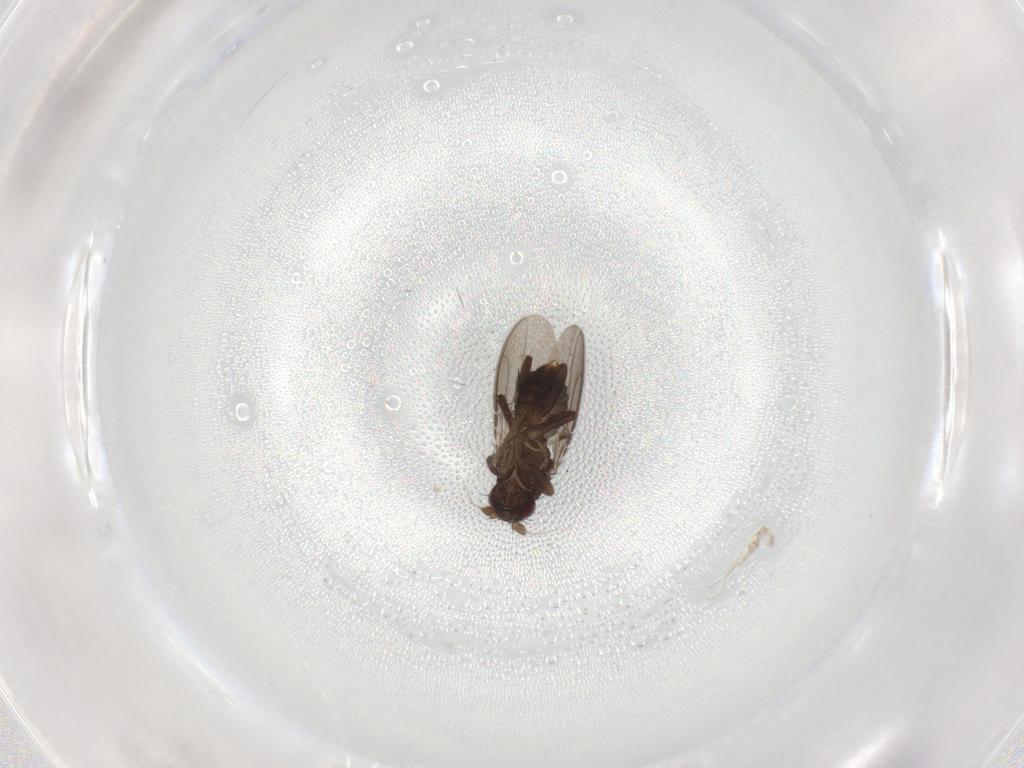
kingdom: Animalia
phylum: Arthropoda
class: Insecta
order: Diptera
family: Sphaeroceridae
